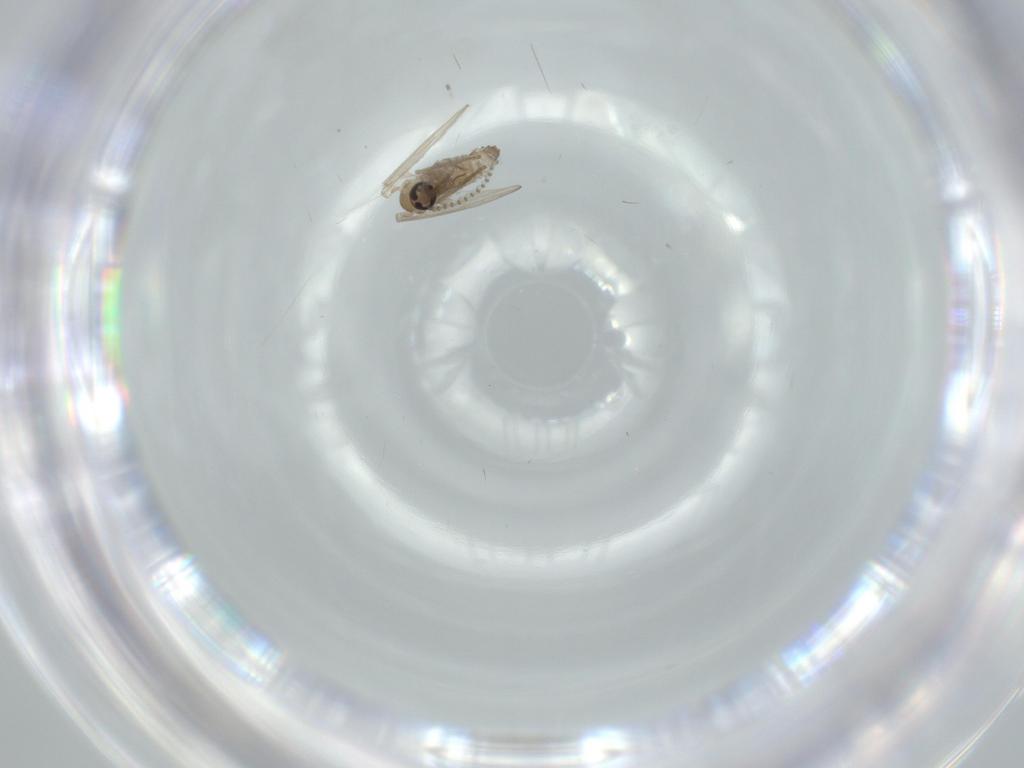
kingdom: Animalia
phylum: Arthropoda
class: Insecta
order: Diptera
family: Psychodidae
